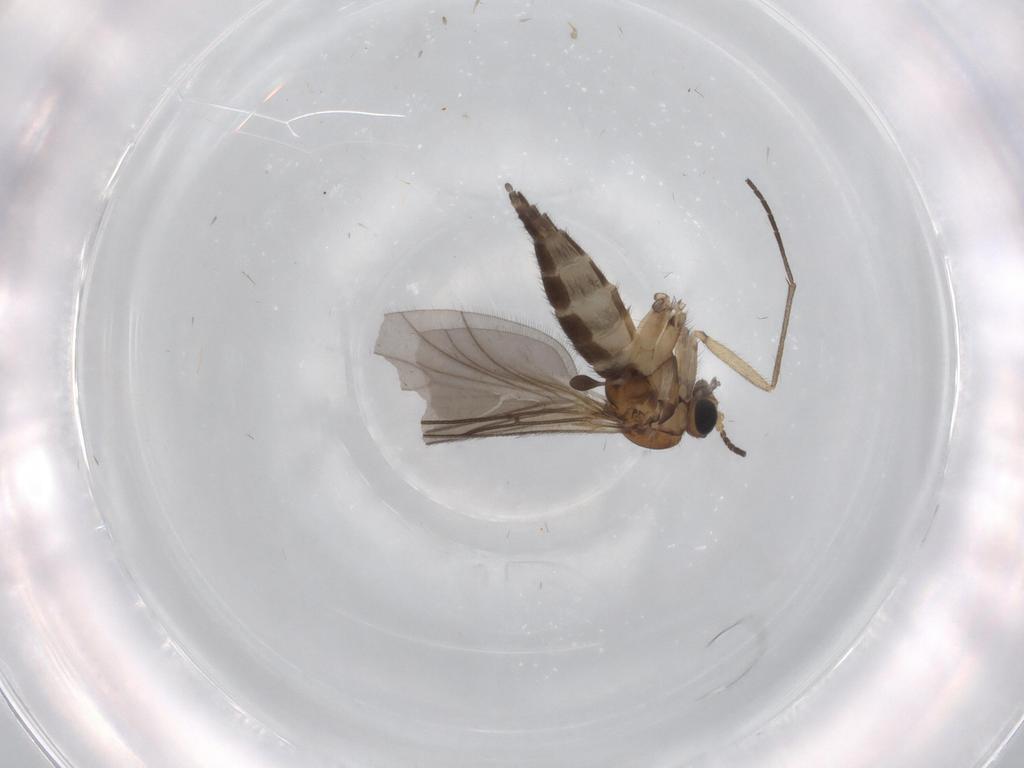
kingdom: Animalia
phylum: Arthropoda
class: Insecta
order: Diptera
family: Sciaridae
